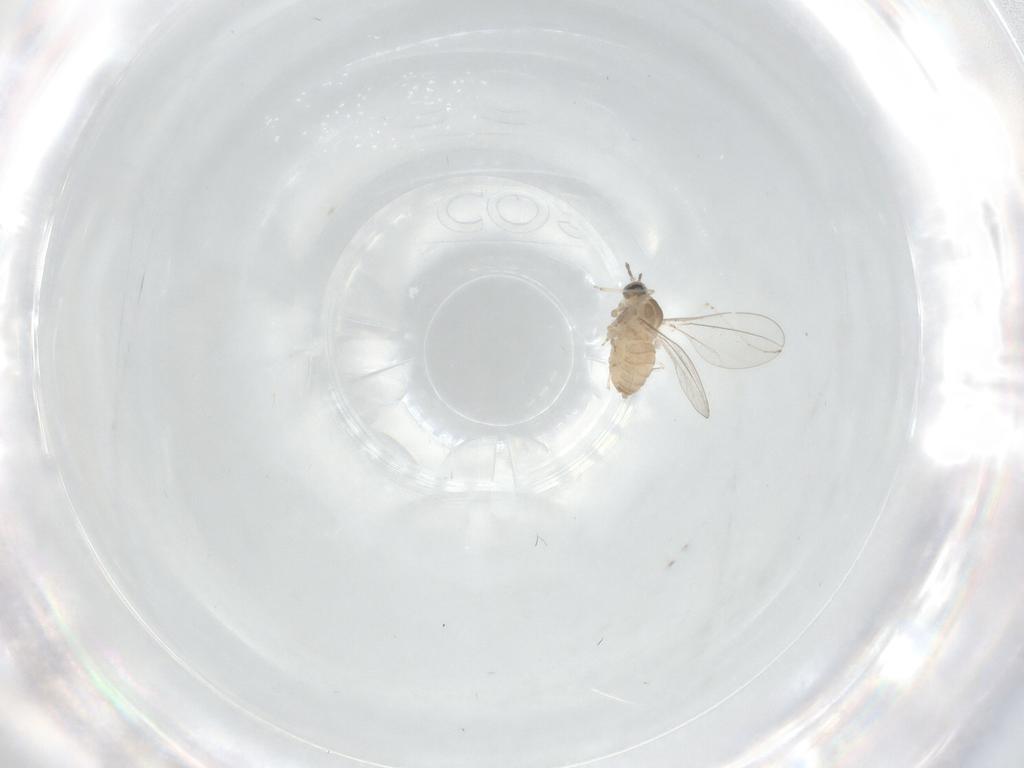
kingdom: Animalia
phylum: Arthropoda
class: Insecta
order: Diptera
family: Cecidomyiidae
